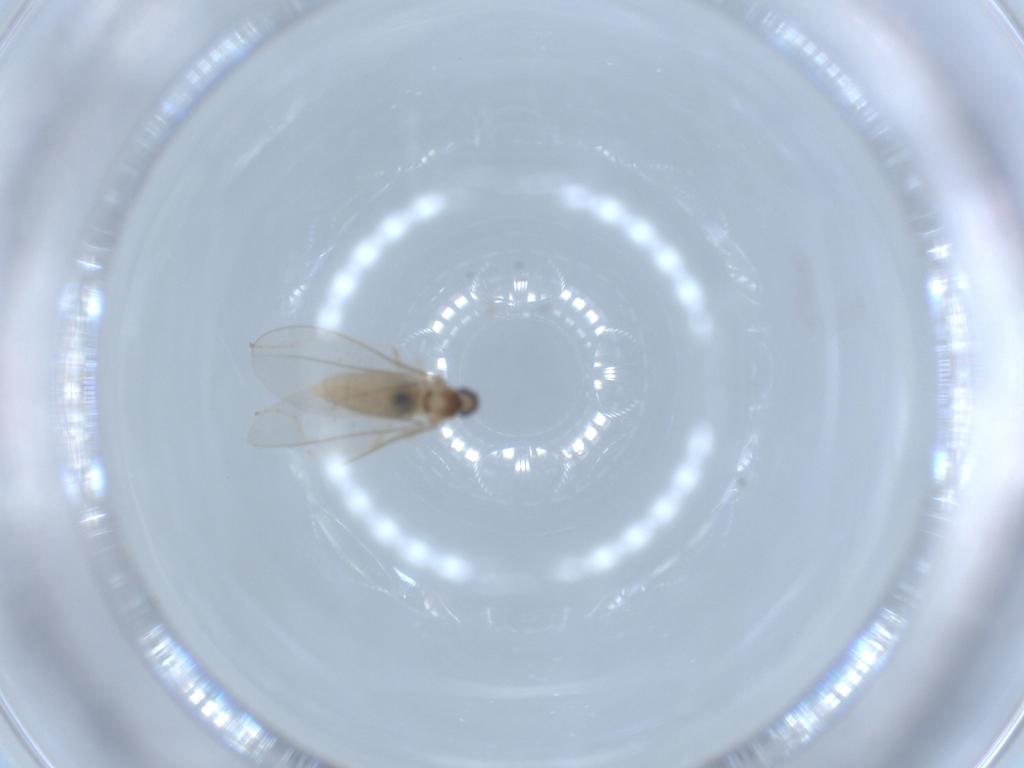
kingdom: Animalia
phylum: Arthropoda
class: Insecta
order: Diptera
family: Cecidomyiidae
